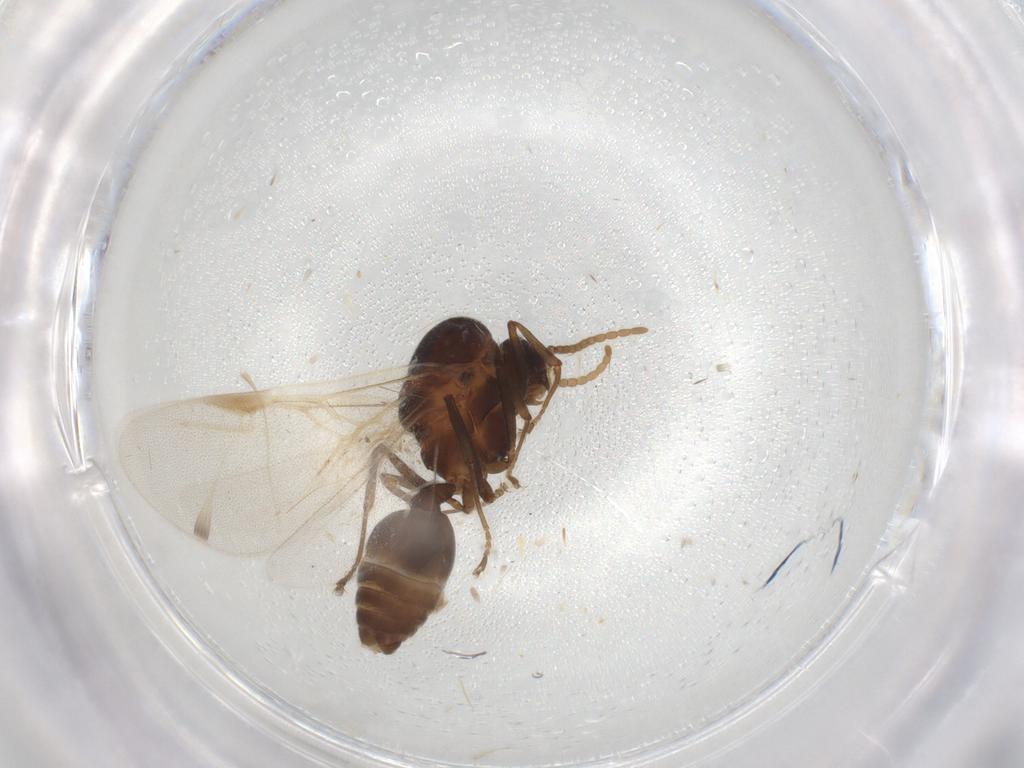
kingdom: Animalia
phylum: Arthropoda
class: Insecta
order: Hymenoptera
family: Formicidae
